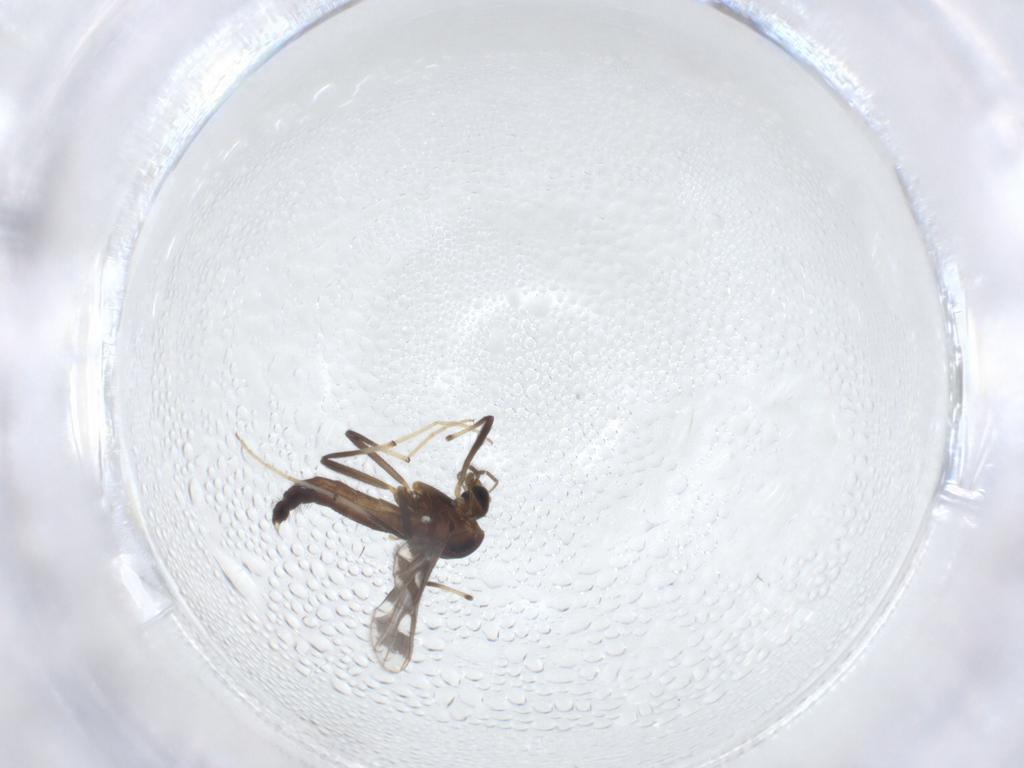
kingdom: Animalia
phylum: Arthropoda
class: Insecta
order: Diptera
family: Chironomidae
